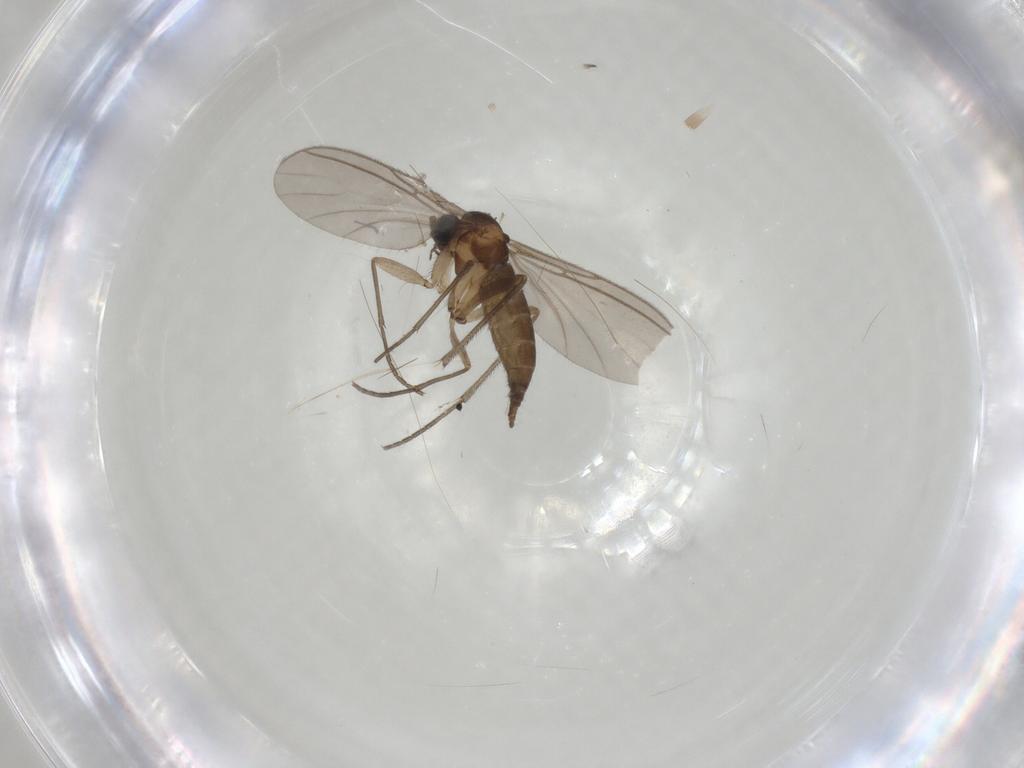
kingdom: Animalia
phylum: Arthropoda
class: Insecta
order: Diptera
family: Sciaridae
